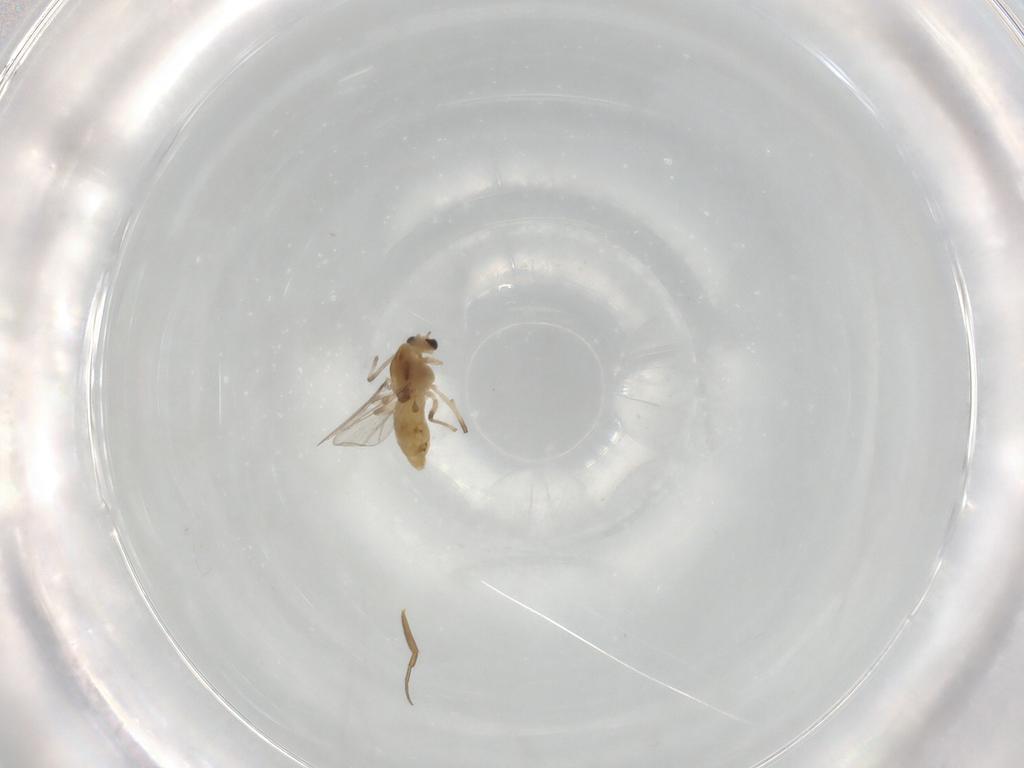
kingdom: Animalia
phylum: Arthropoda
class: Insecta
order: Diptera
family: Chironomidae
